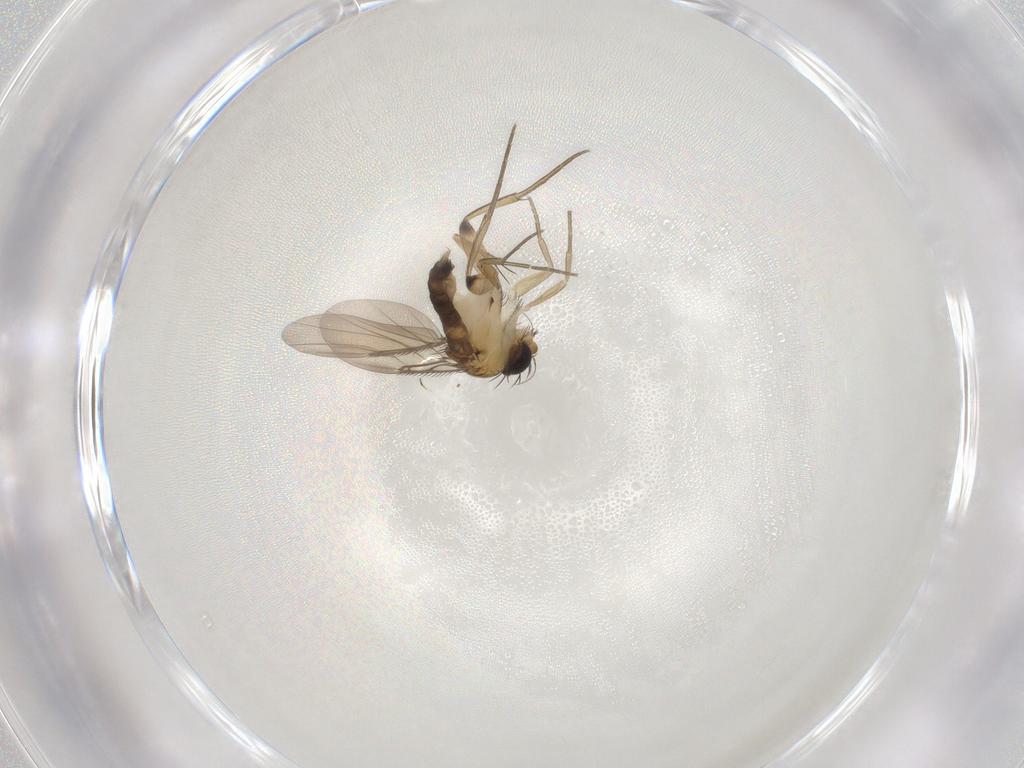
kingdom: Animalia
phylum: Arthropoda
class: Insecta
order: Diptera
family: Phoridae
